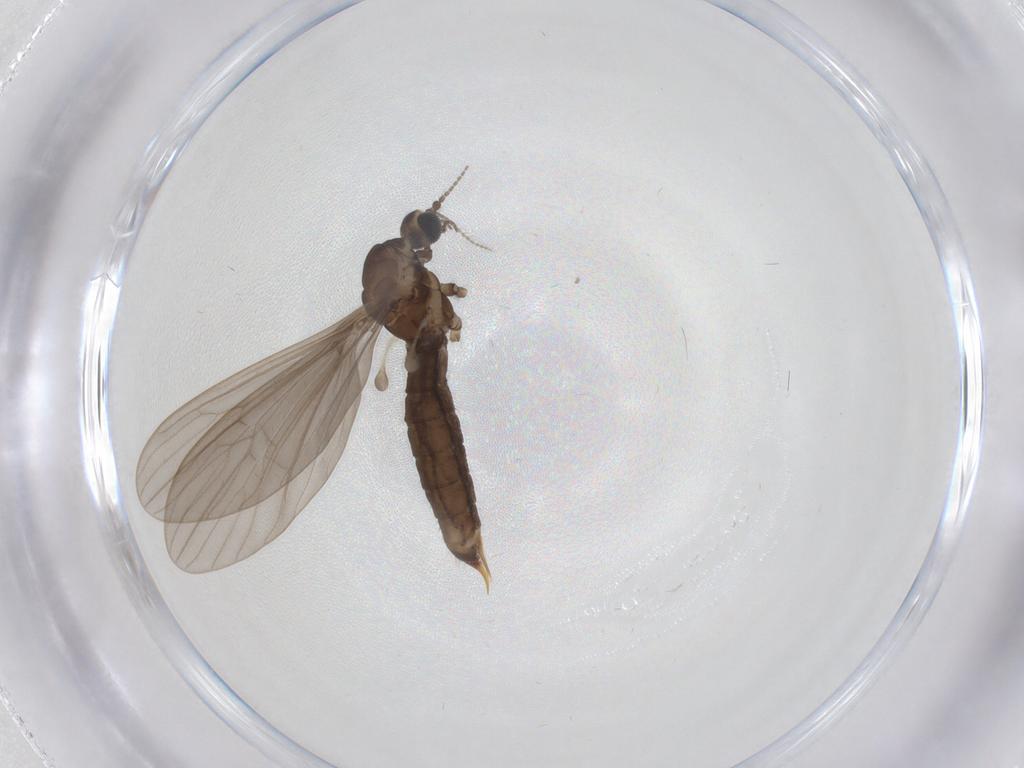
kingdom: Animalia
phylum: Arthropoda
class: Insecta
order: Diptera
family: Limoniidae
